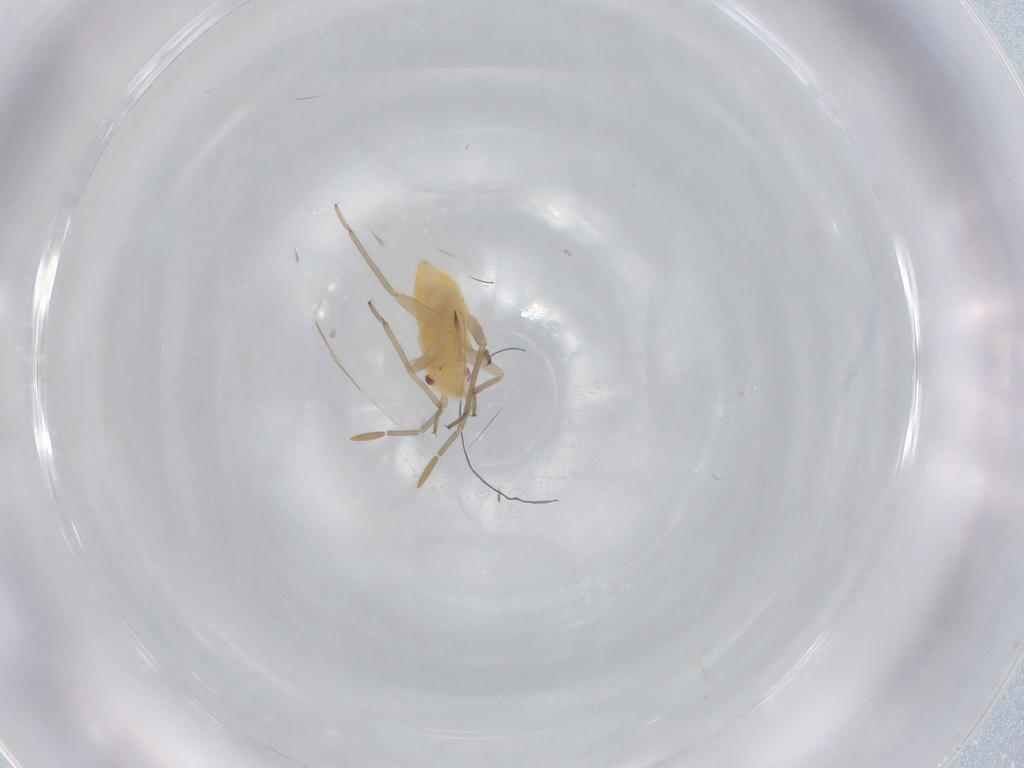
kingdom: Animalia
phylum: Arthropoda
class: Insecta
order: Hemiptera
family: Miridae
